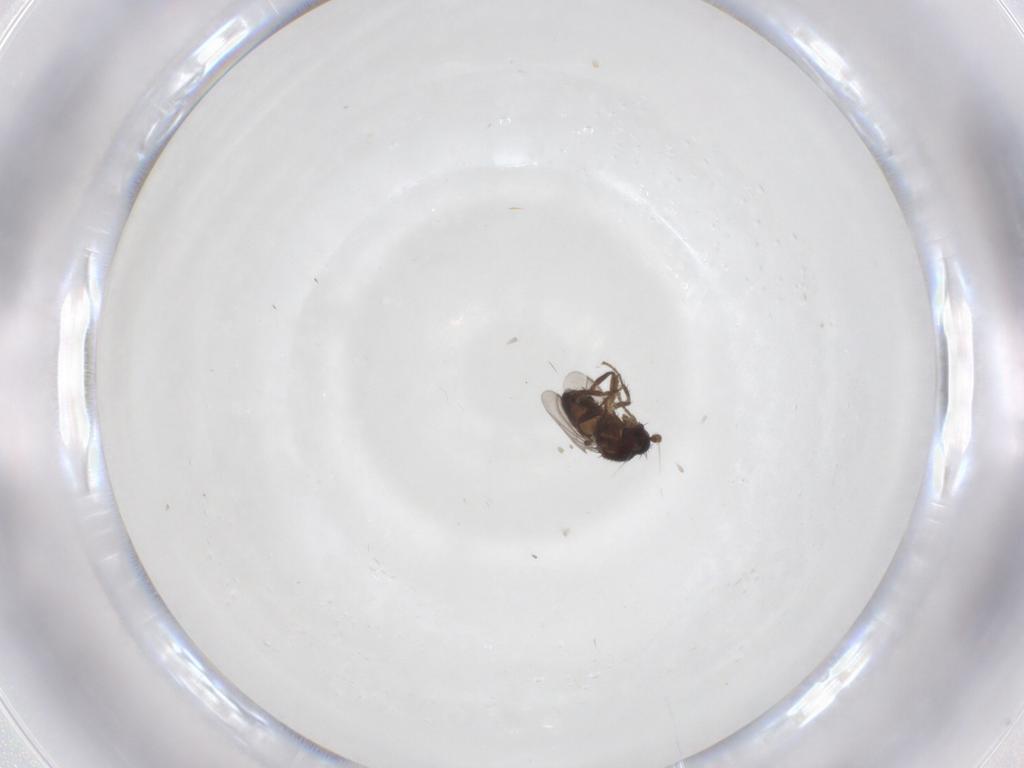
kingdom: Animalia
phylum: Arthropoda
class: Insecta
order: Diptera
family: Sphaeroceridae
